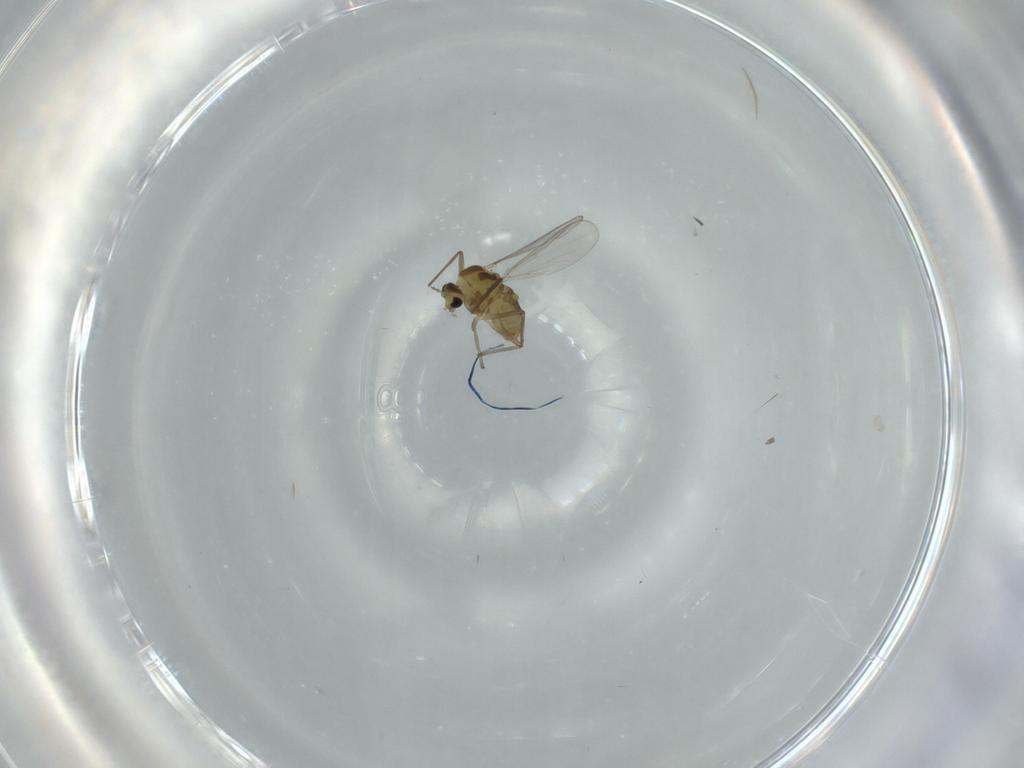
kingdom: Animalia
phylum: Arthropoda
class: Insecta
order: Diptera
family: Chironomidae
